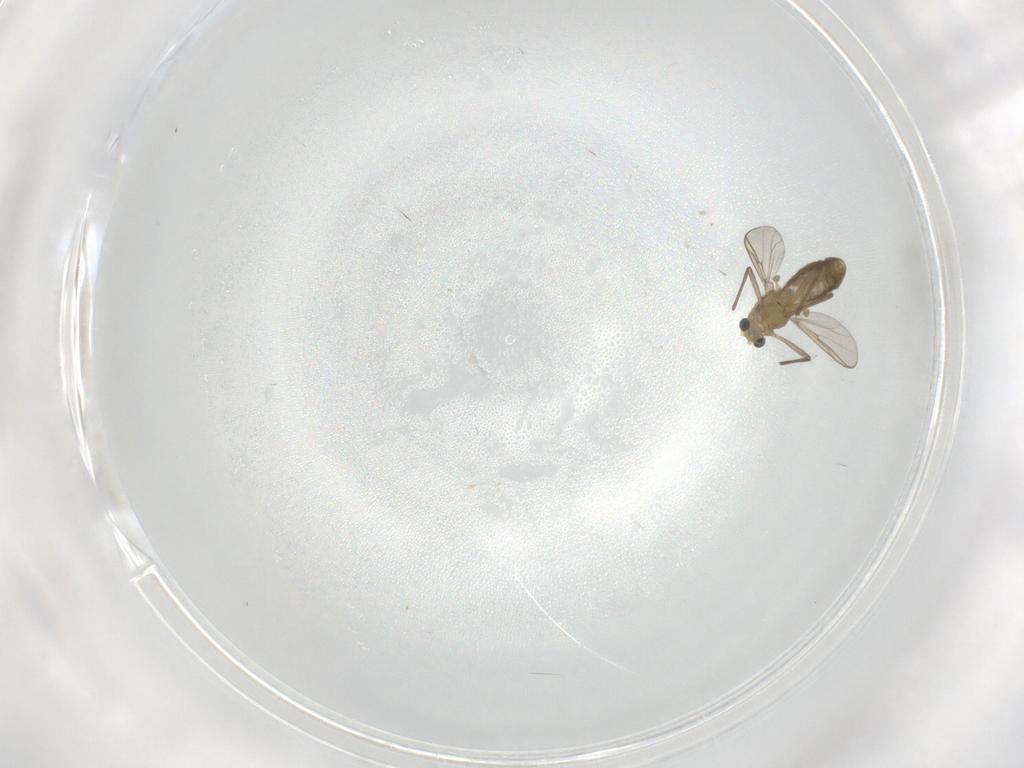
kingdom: Animalia
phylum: Arthropoda
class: Insecta
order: Diptera
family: Chironomidae
